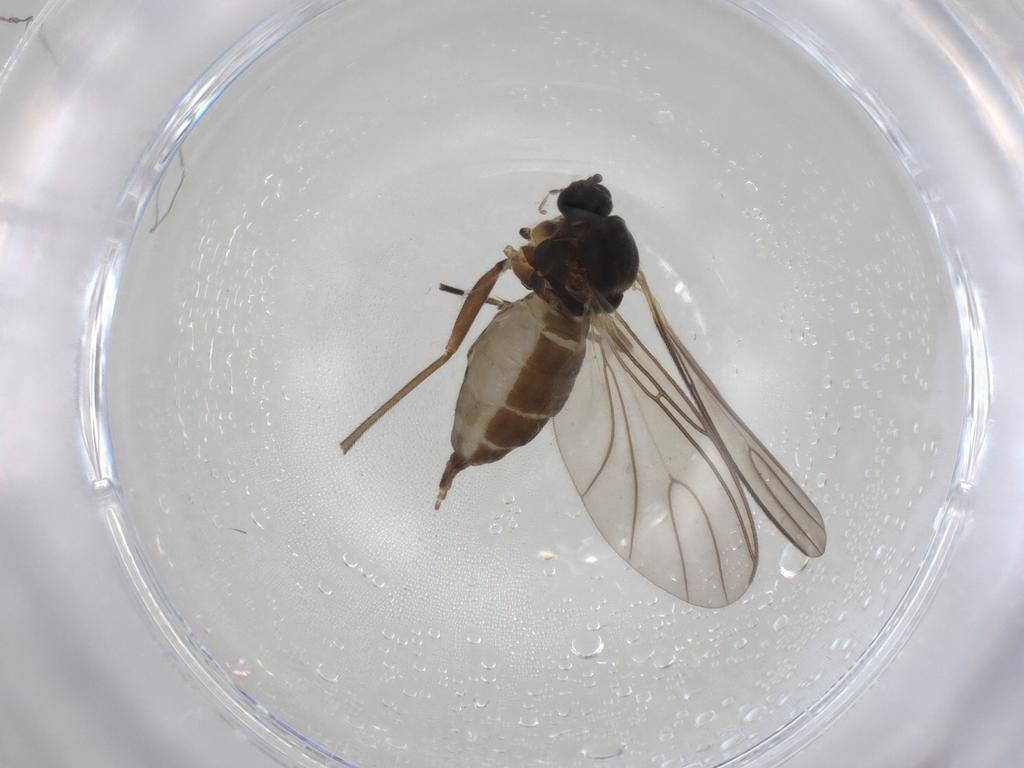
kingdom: Animalia
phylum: Arthropoda
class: Insecta
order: Diptera
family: Sciaridae
